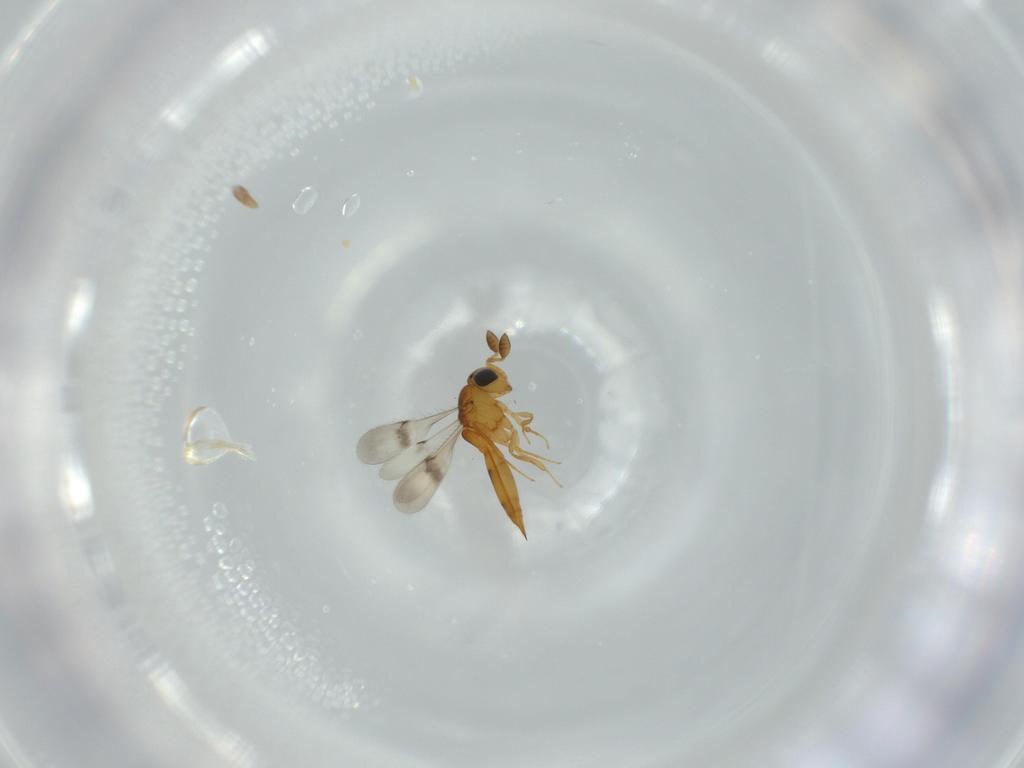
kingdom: Animalia
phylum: Arthropoda
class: Insecta
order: Hymenoptera
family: Scelionidae
